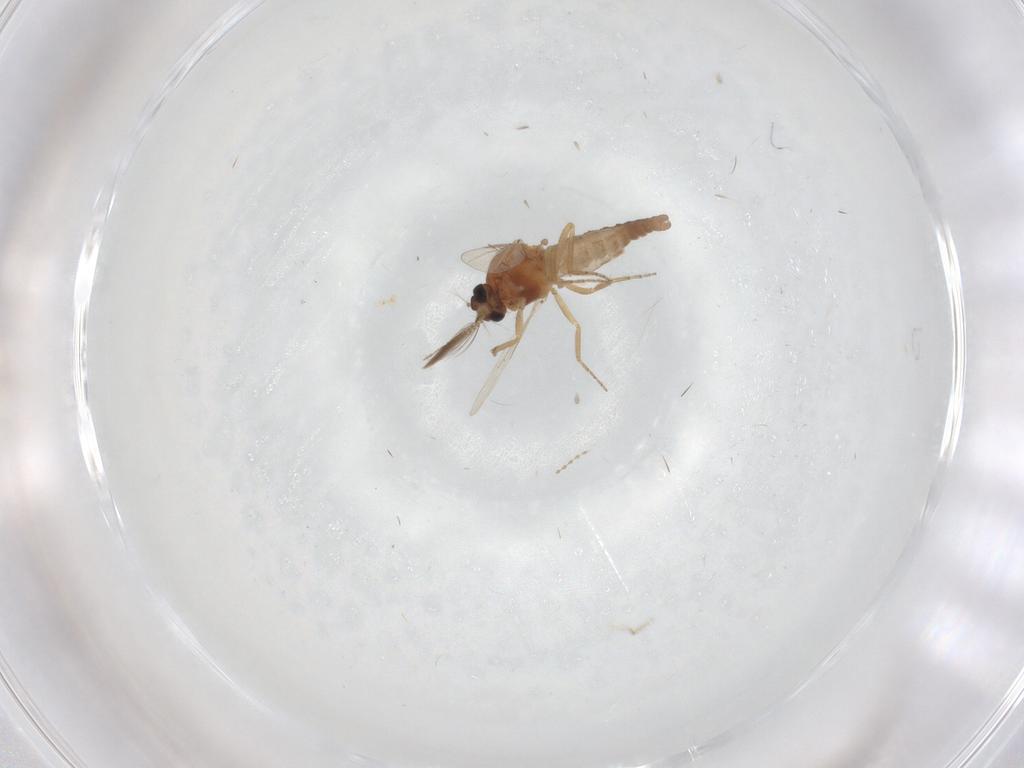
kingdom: Animalia
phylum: Arthropoda
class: Insecta
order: Diptera
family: Ceratopogonidae
